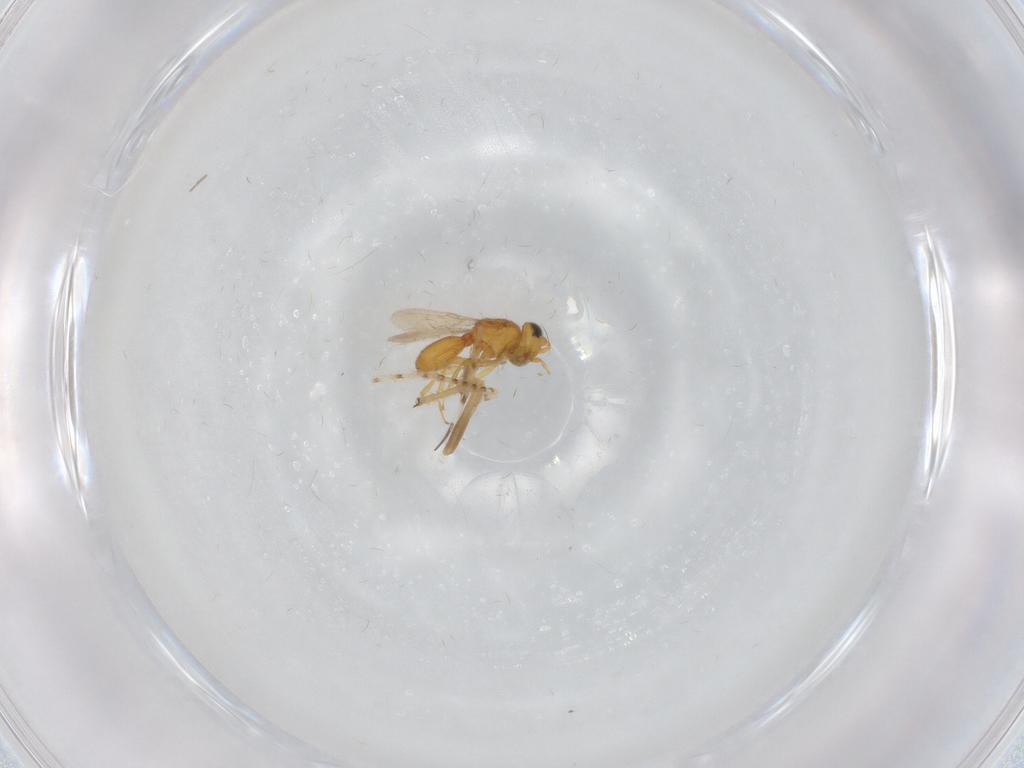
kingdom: Animalia
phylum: Arthropoda
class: Insecta
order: Hymenoptera
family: Scelionidae
